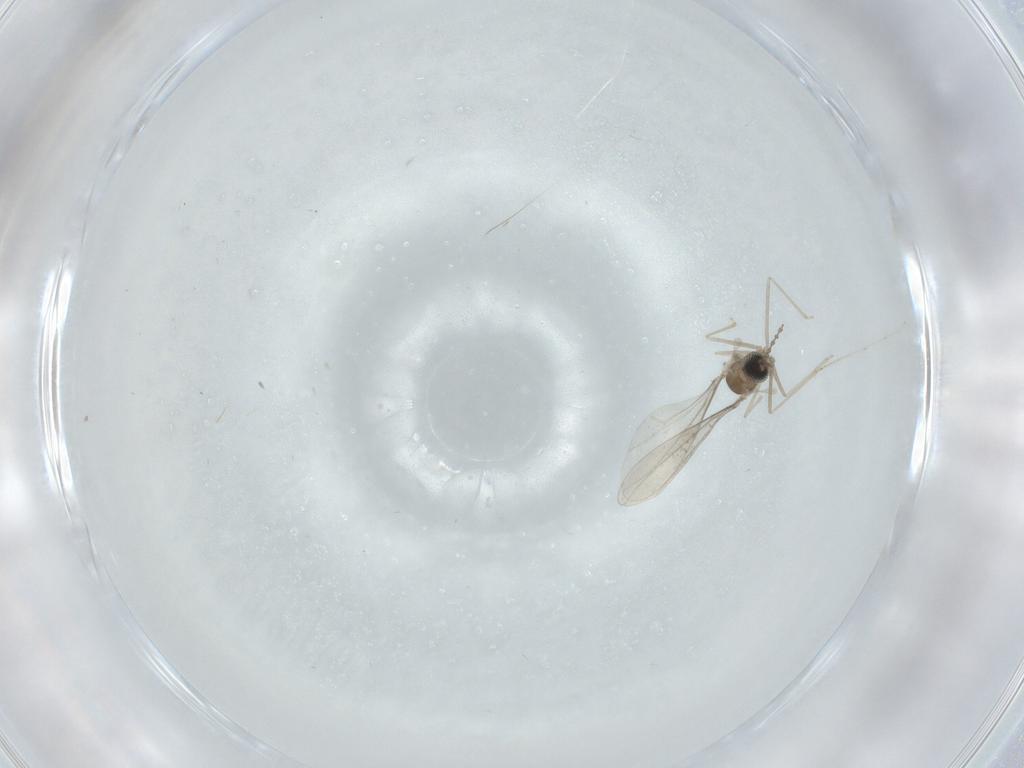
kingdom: Animalia
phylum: Arthropoda
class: Insecta
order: Diptera
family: Cecidomyiidae
